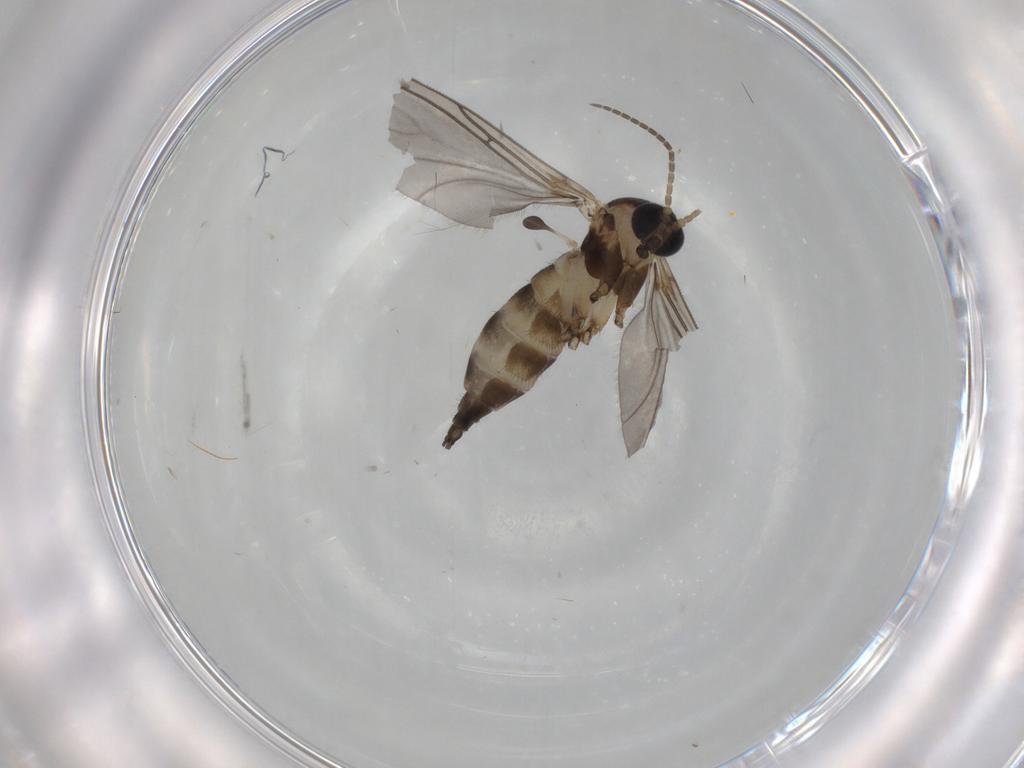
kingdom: Animalia
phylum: Arthropoda
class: Insecta
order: Diptera
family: Sciaridae
